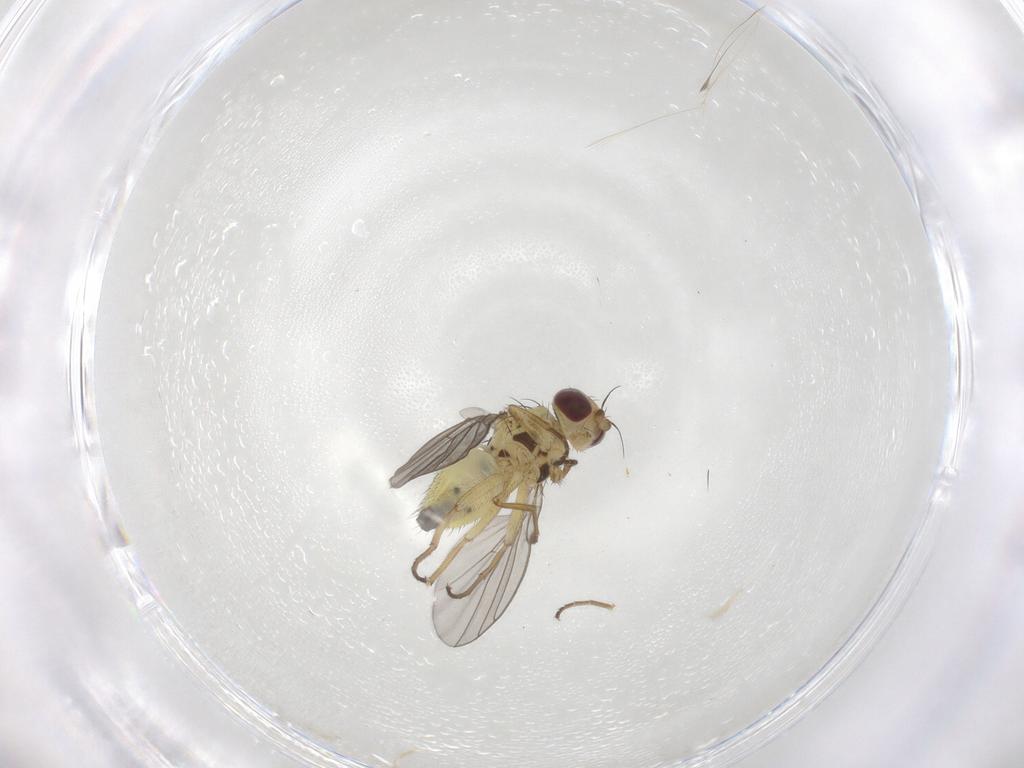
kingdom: Animalia
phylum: Arthropoda
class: Insecta
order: Diptera
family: Agromyzidae
